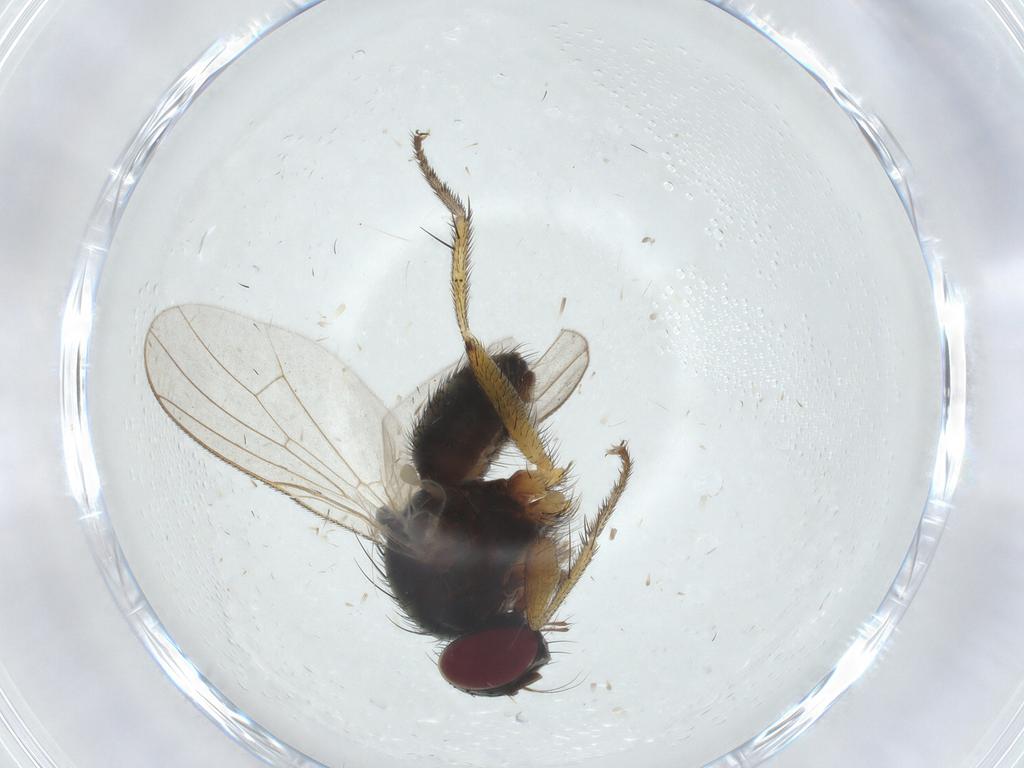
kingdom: Animalia
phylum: Arthropoda
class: Insecta
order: Diptera
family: Muscidae
